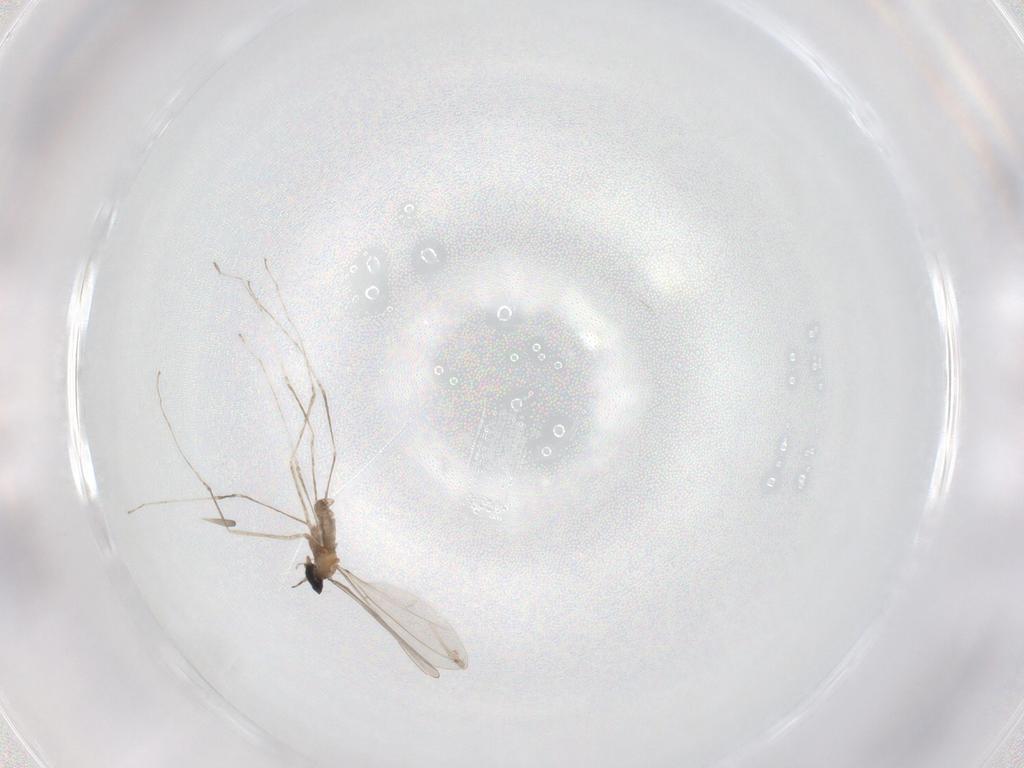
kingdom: Animalia
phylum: Arthropoda
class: Insecta
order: Diptera
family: Cecidomyiidae
